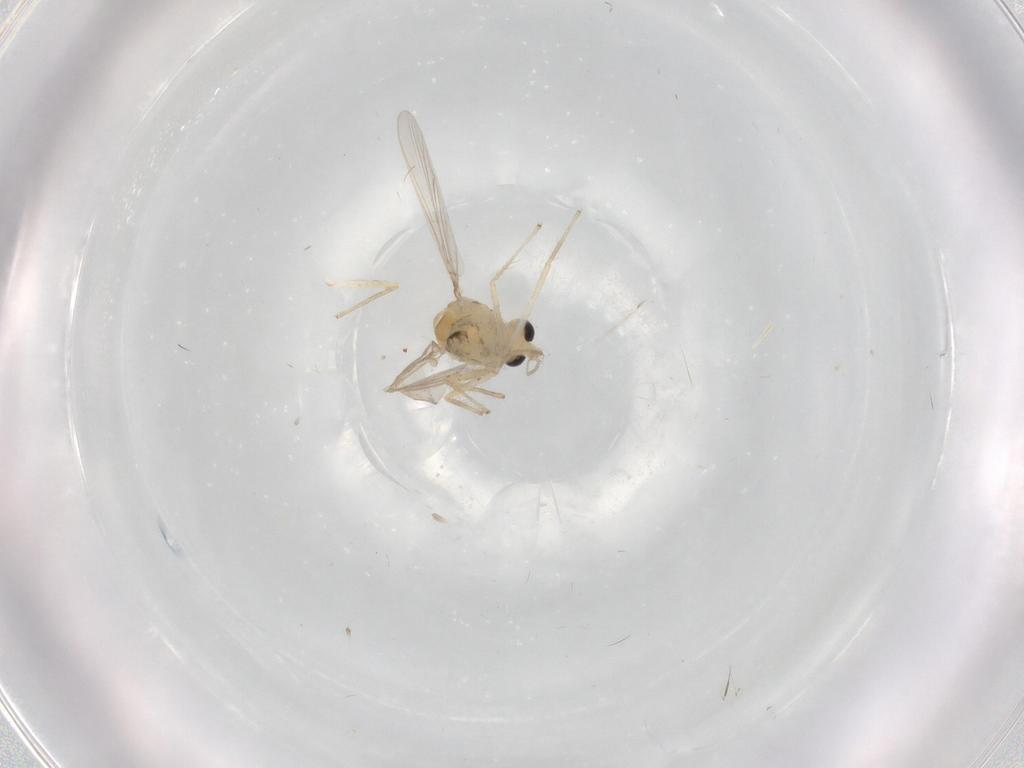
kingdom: Animalia
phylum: Arthropoda
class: Insecta
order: Diptera
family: Chironomidae
